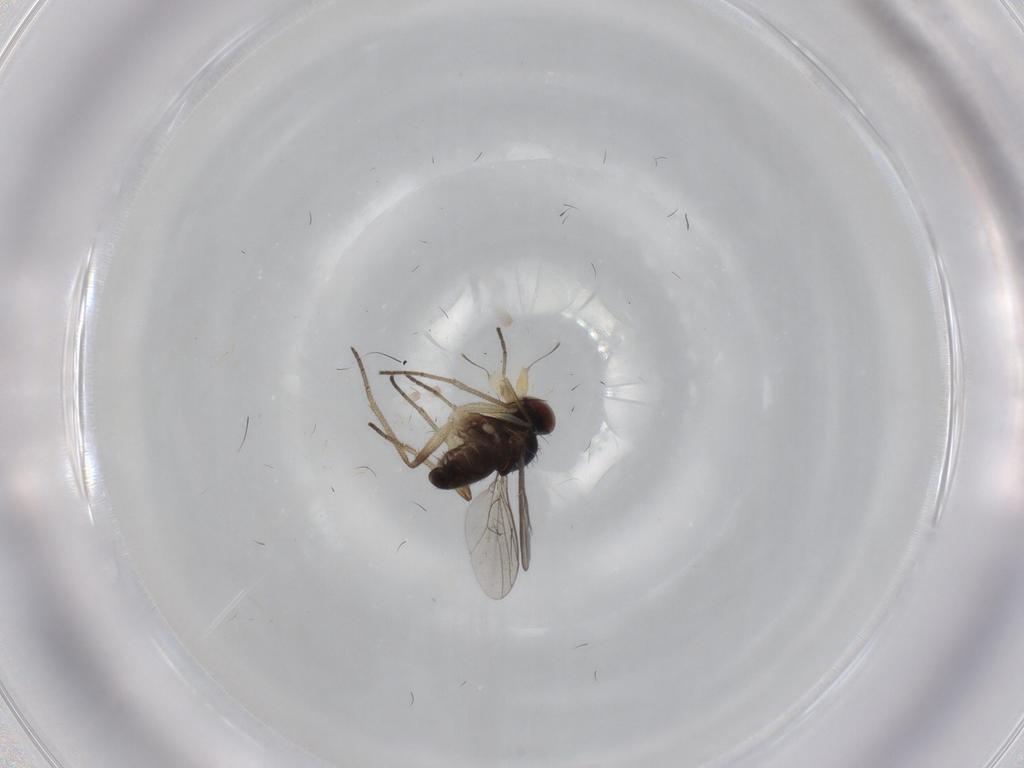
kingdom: Animalia
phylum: Arthropoda
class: Insecta
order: Diptera
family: Dolichopodidae
